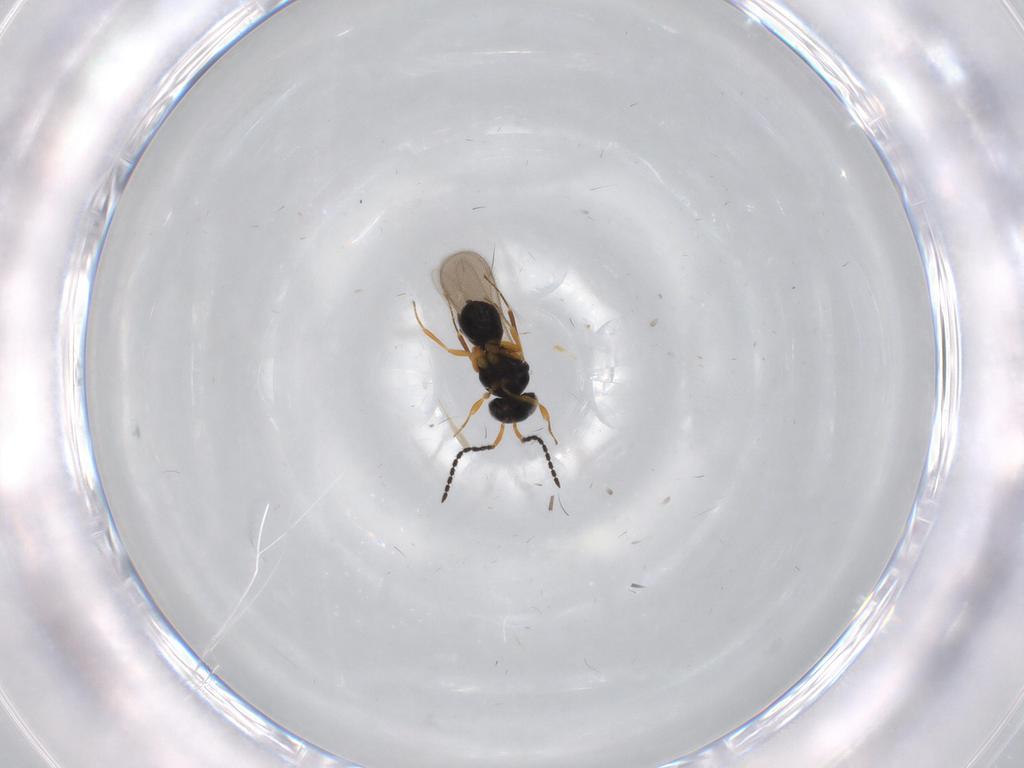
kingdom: Animalia
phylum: Arthropoda
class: Insecta
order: Hymenoptera
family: Scelionidae
